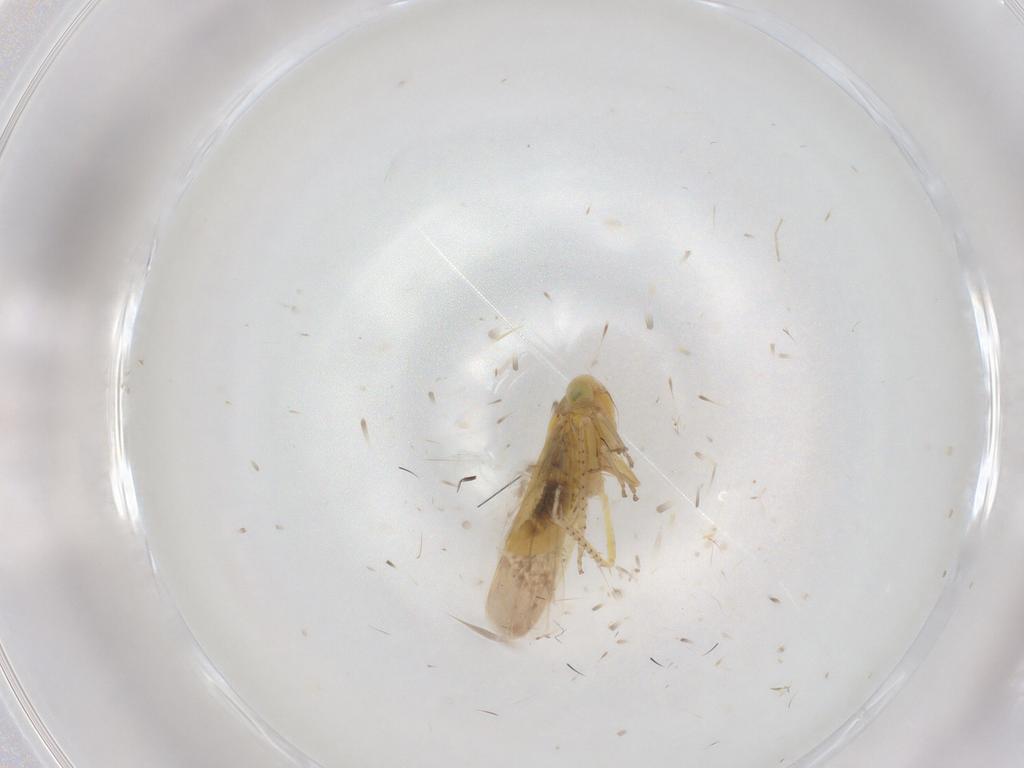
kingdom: Animalia
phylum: Arthropoda
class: Insecta
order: Hemiptera
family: Cicadellidae
